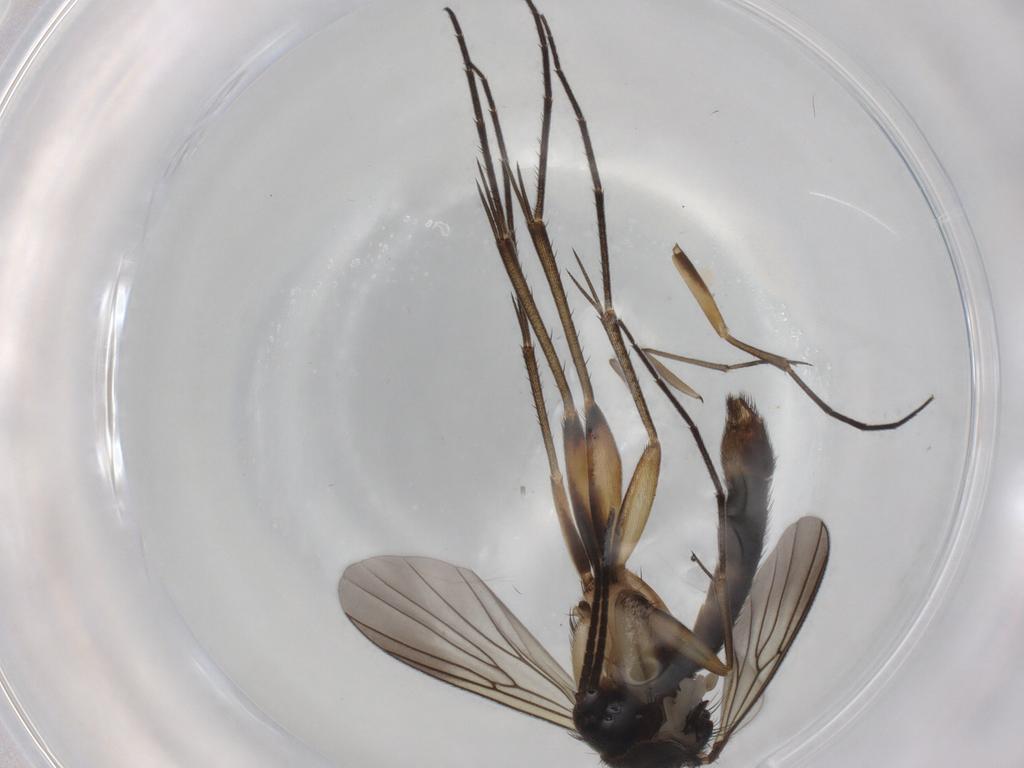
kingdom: Animalia
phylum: Arthropoda
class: Insecta
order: Diptera
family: Mycetophilidae
